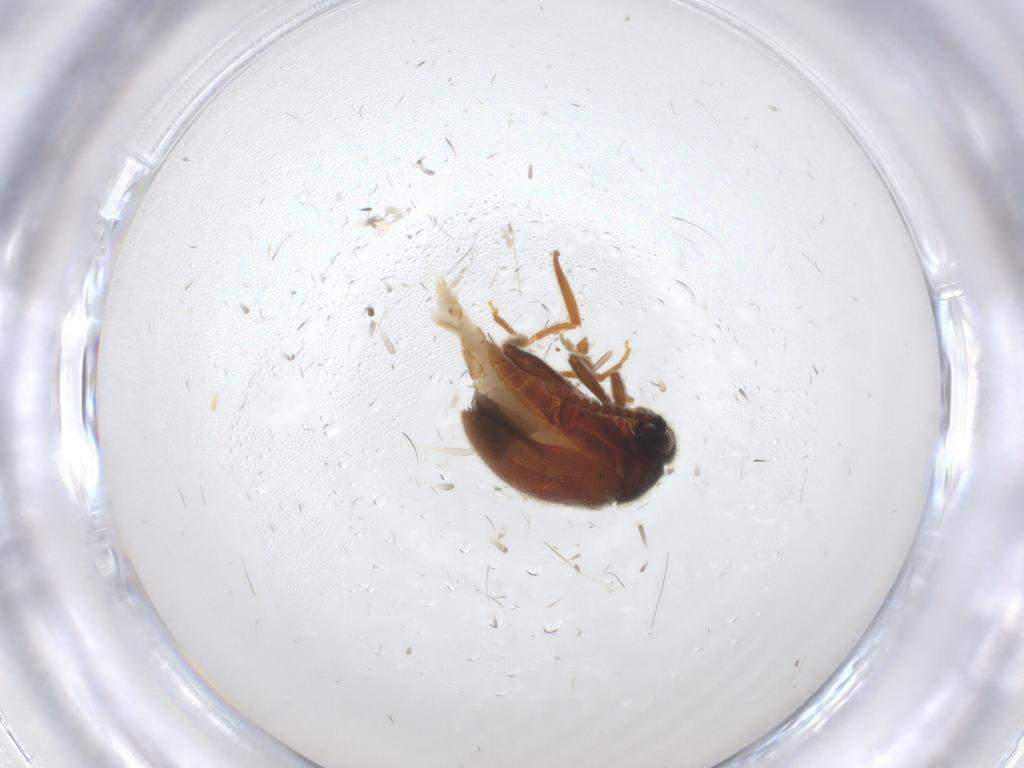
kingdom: Animalia
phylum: Arthropoda
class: Insecta
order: Coleoptera
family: Aderidae
